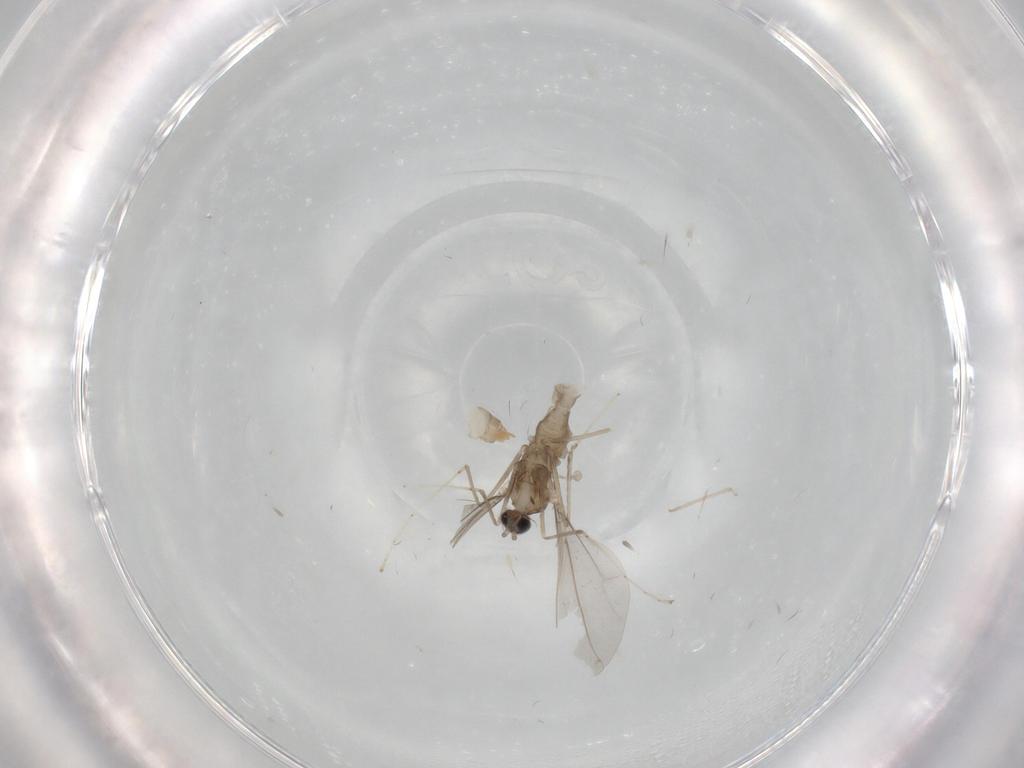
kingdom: Animalia
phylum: Arthropoda
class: Insecta
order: Diptera
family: Cecidomyiidae
